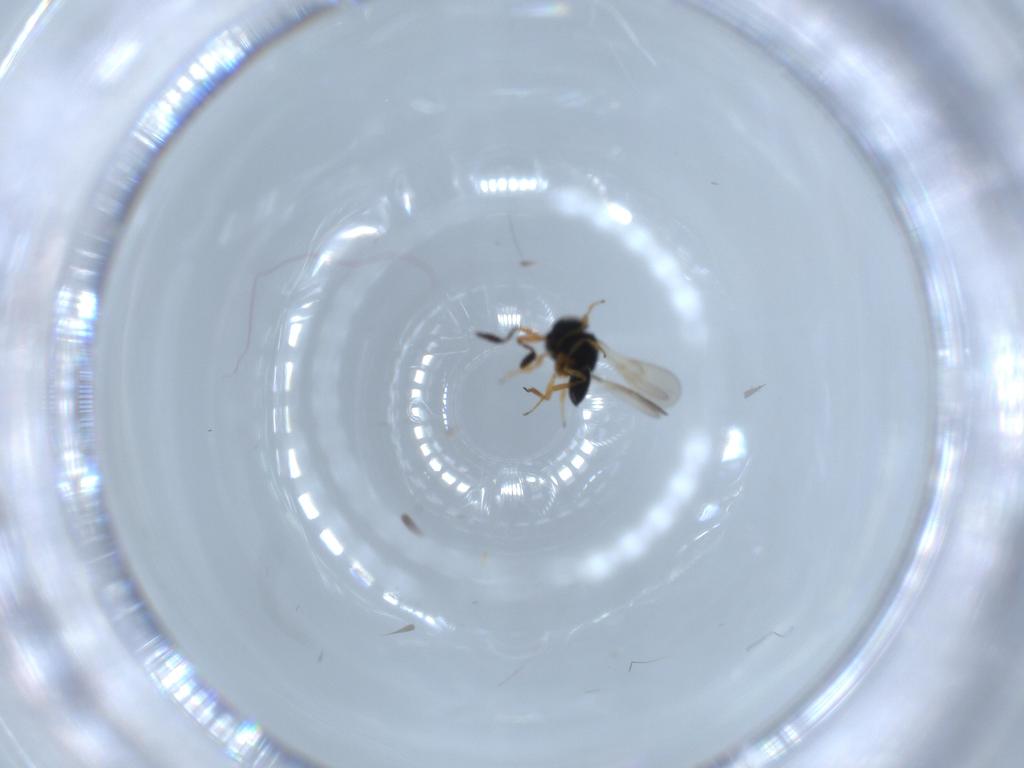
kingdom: Animalia
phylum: Arthropoda
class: Insecta
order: Hymenoptera
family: Scelionidae
